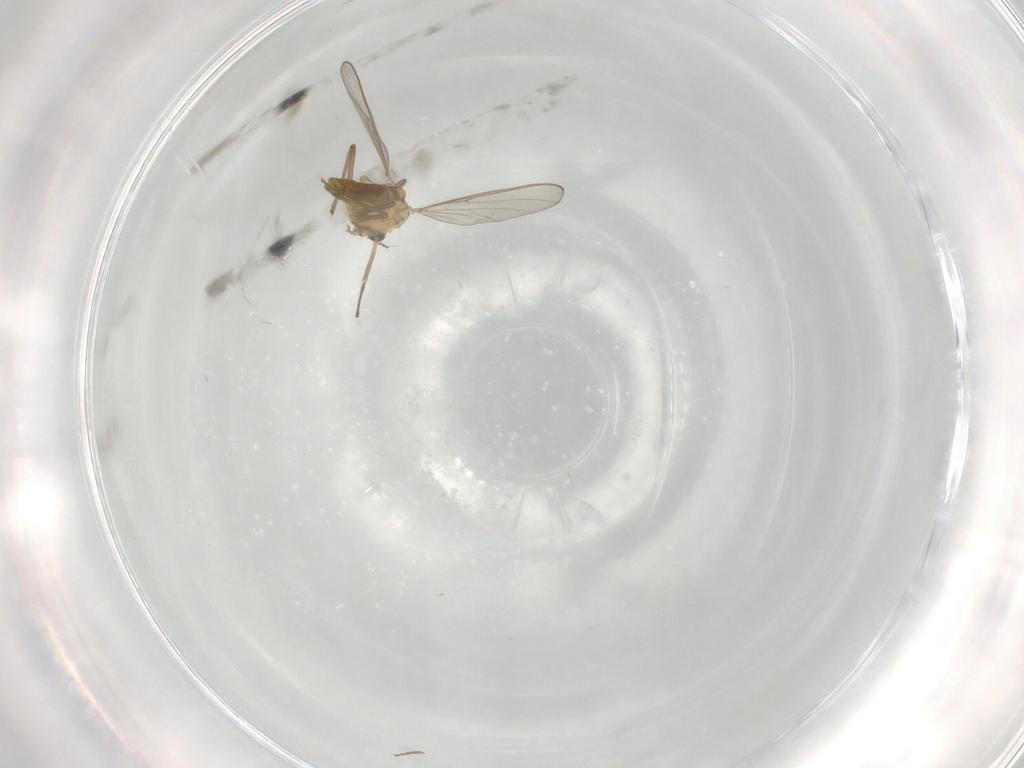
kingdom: Animalia
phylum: Arthropoda
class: Insecta
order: Diptera
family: Chironomidae
